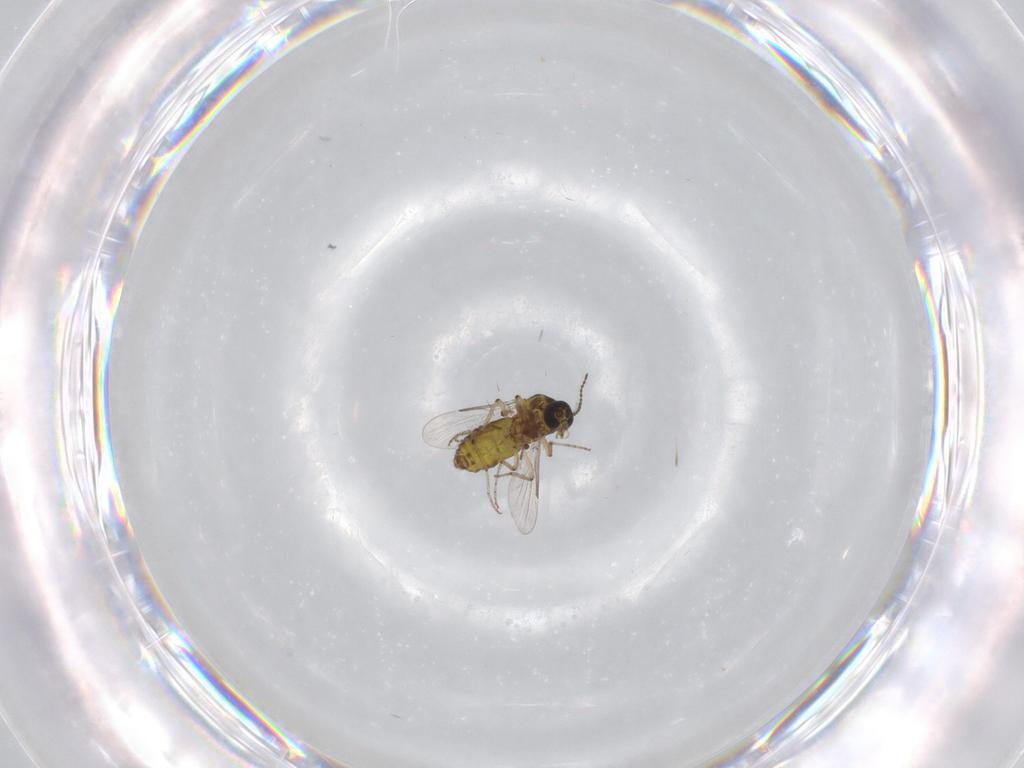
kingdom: Animalia
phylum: Arthropoda
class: Insecta
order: Diptera
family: Ceratopogonidae
